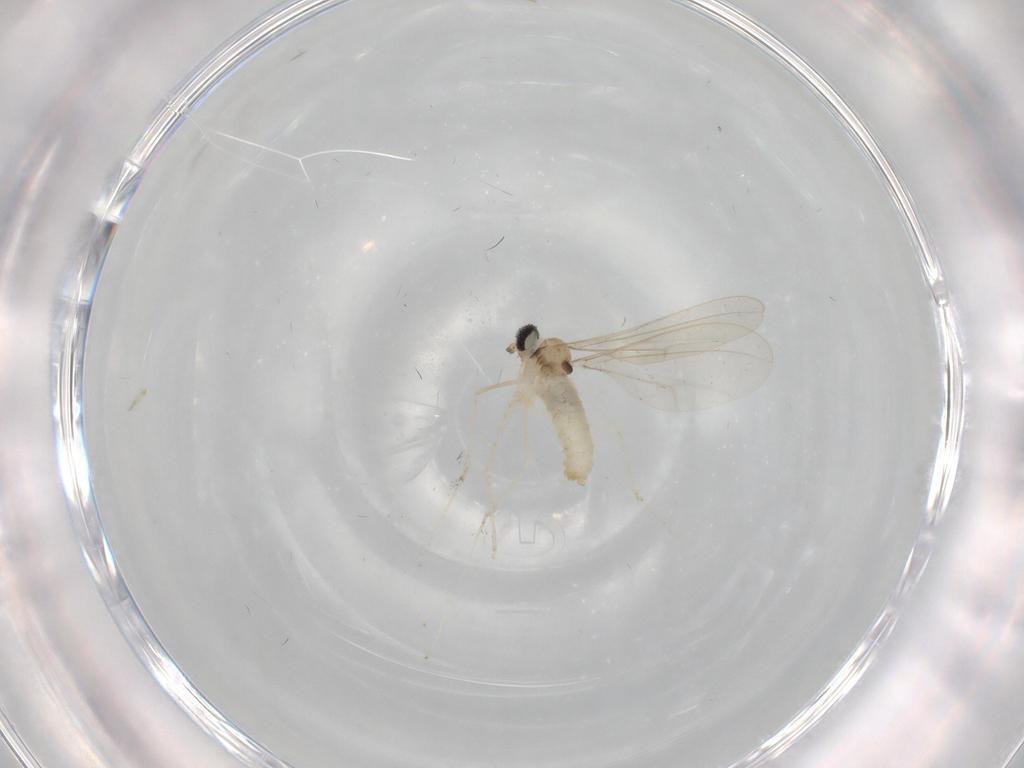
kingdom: Animalia
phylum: Arthropoda
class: Insecta
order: Diptera
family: Cecidomyiidae
